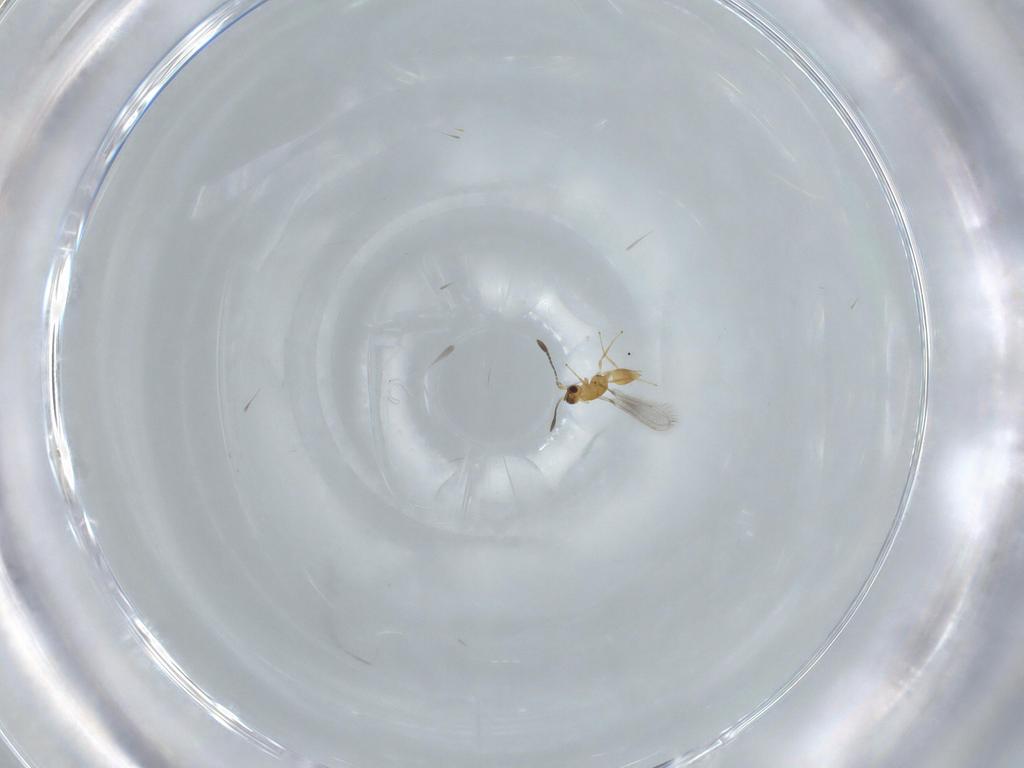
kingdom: Animalia
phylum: Arthropoda
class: Insecta
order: Hymenoptera
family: Mymaridae
